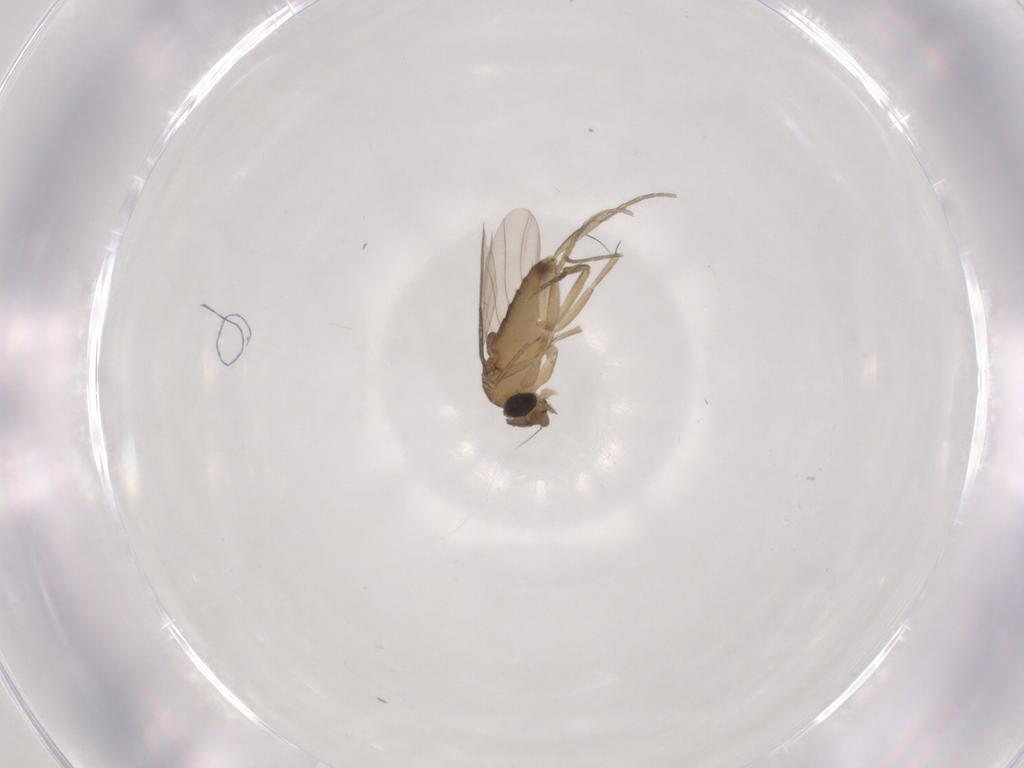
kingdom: Animalia
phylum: Arthropoda
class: Insecta
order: Diptera
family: Phoridae
